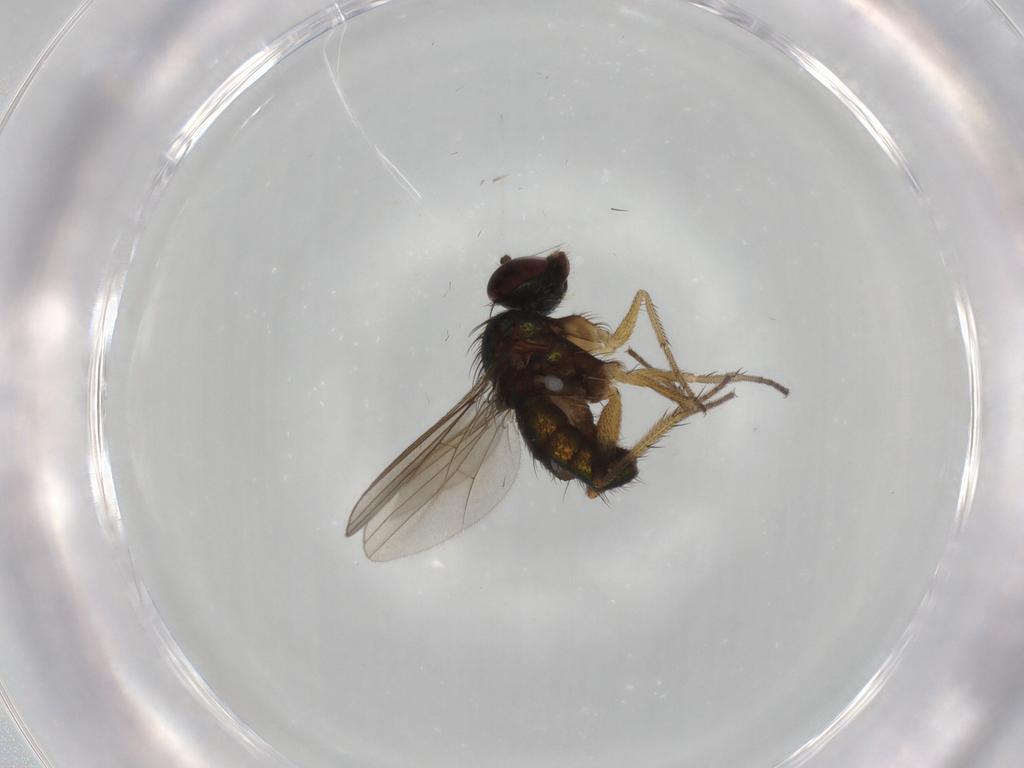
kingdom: Animalia
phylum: Arthropoda
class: Insecta
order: Diptera
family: Dolichopodidae
